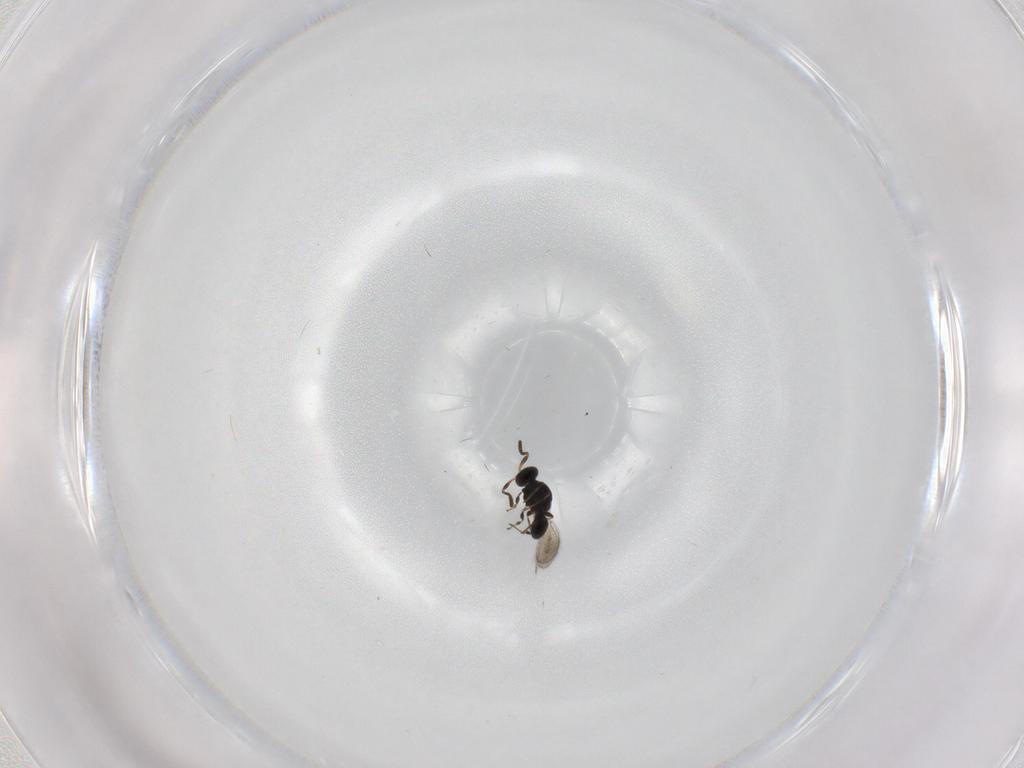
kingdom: Animalia
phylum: Arthropoda
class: Insecta
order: Hymenoptera
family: Platygastridae
